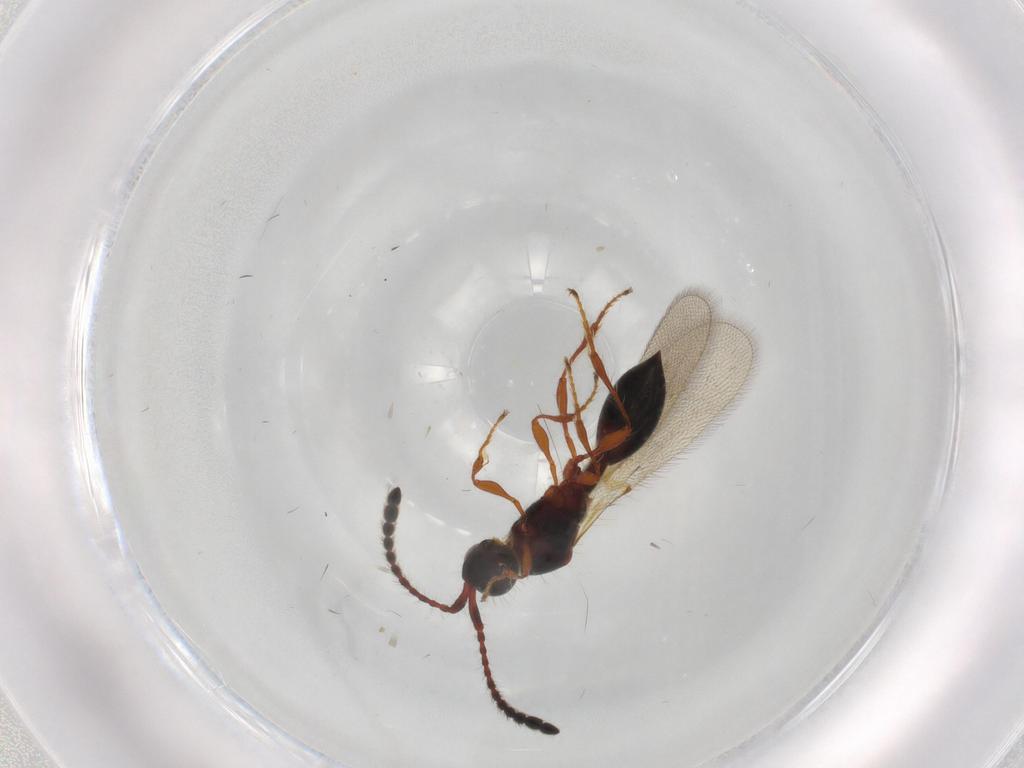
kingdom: Animalia
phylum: Arthropoda
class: Insecta
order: Hymenoptera
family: Diapriidae
